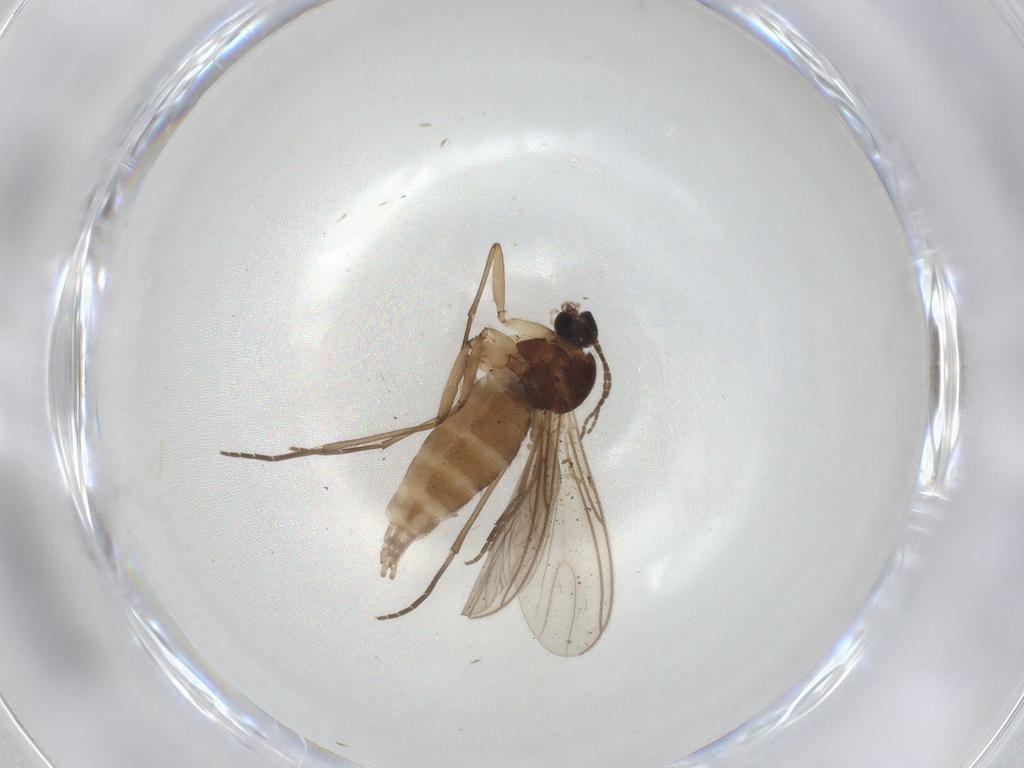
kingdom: Animalia
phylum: Arthropoda
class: Insecta
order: Diptera
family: Sciaridae
